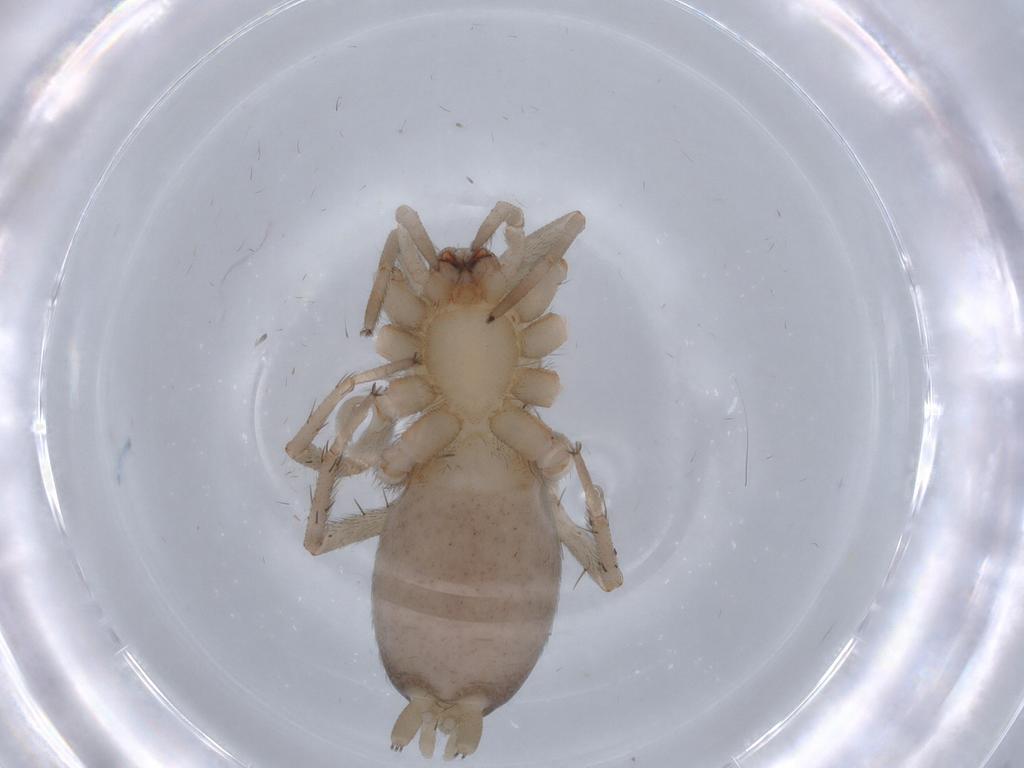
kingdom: Animalia
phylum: Arthropoda
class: Arachnida
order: Araneae
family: Gnaphosidae
